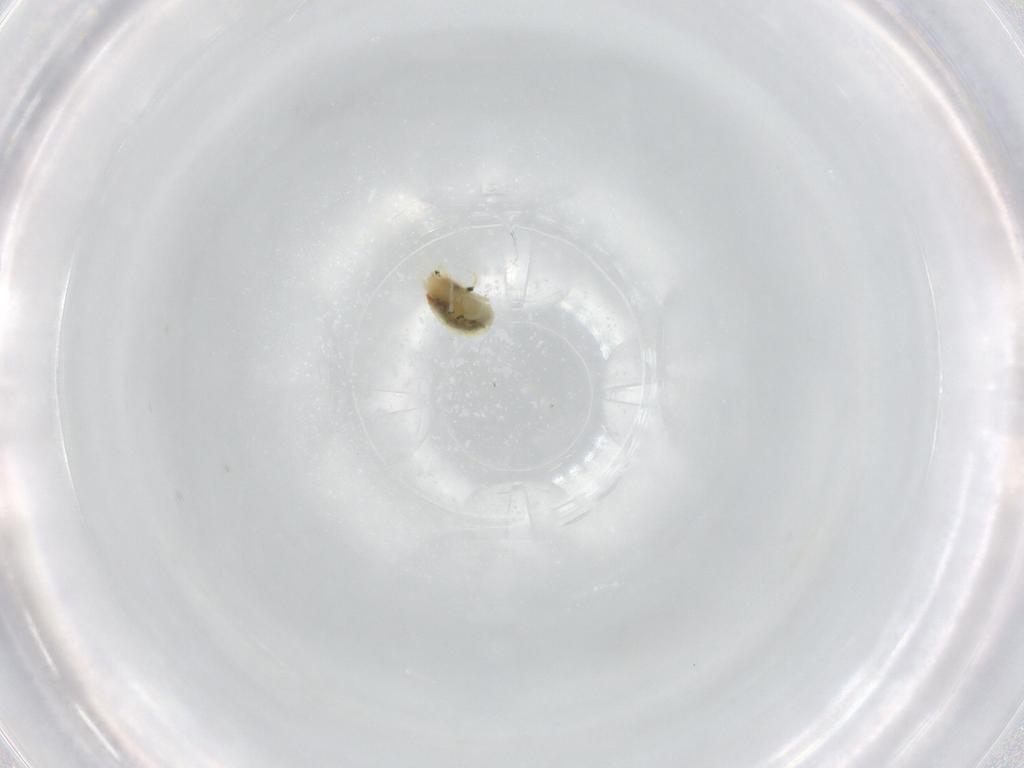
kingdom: Animalia
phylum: Arthropoda
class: Arachnida
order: Trombidiformes
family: Tetranychidae
